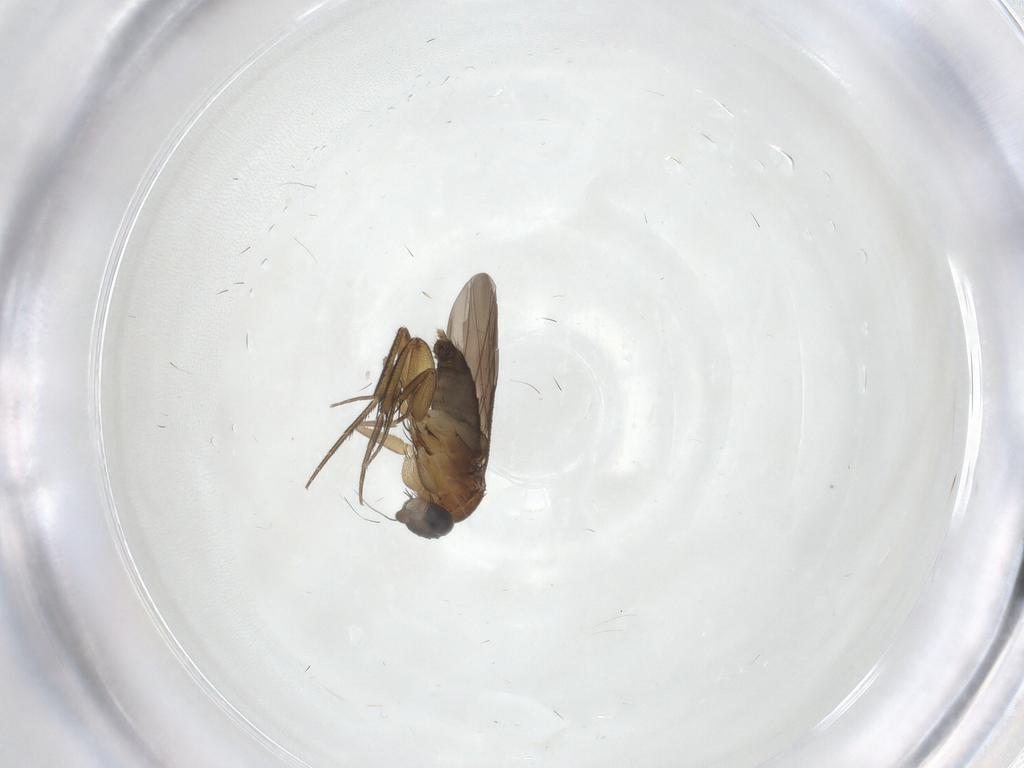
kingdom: Animalia
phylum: Arthropoda
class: Insecta
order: Diptera
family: Phoridae
